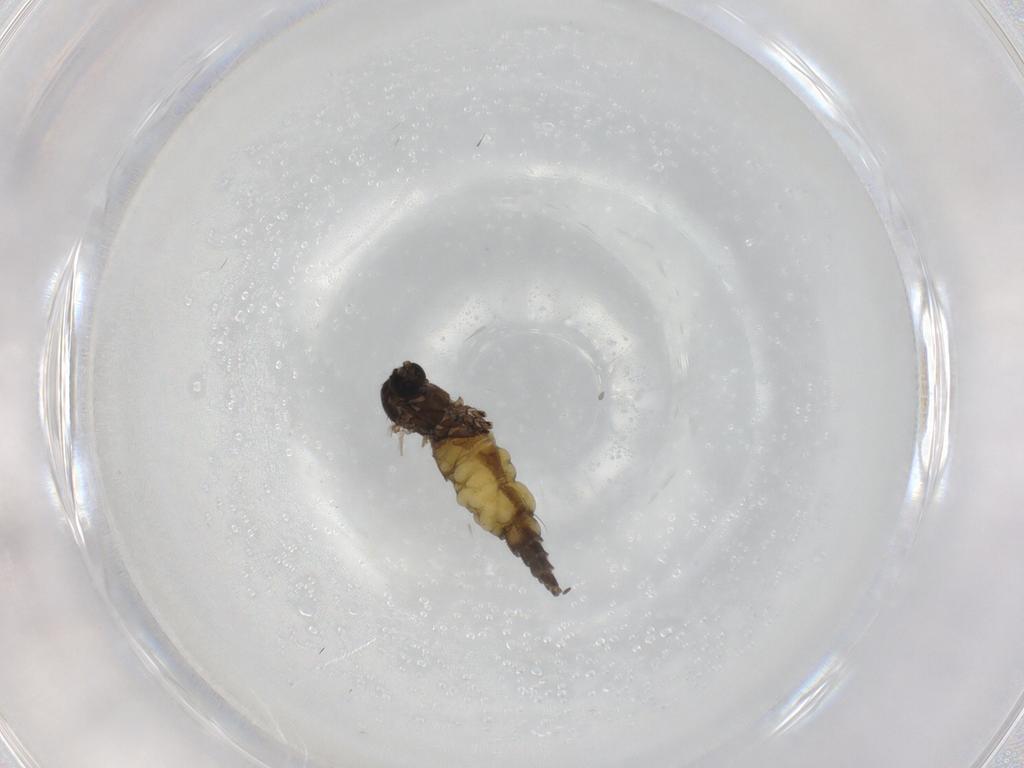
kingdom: Animalia
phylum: Arthropoda
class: Insecta
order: Diptera
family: Sciaridae
